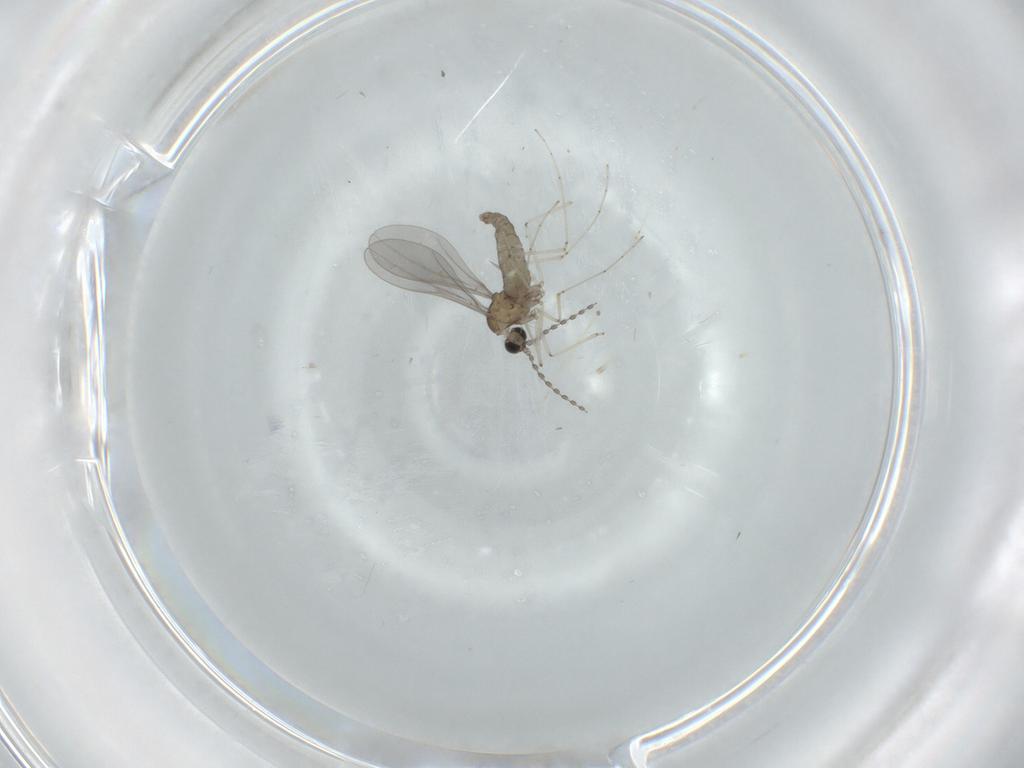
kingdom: Animalia
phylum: Arthropoda
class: Insecta
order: Diptera
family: Cecidomyiidae
